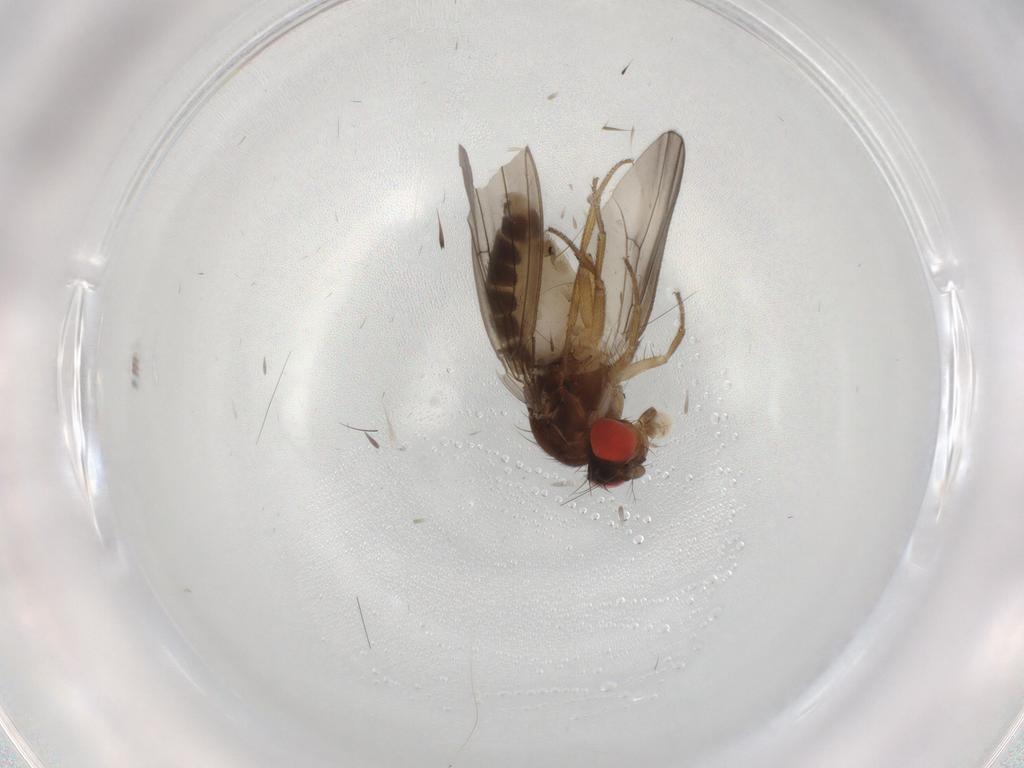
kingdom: Animalia
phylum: Arthropoda
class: Insecta
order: Diptera
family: Drosophilidae
